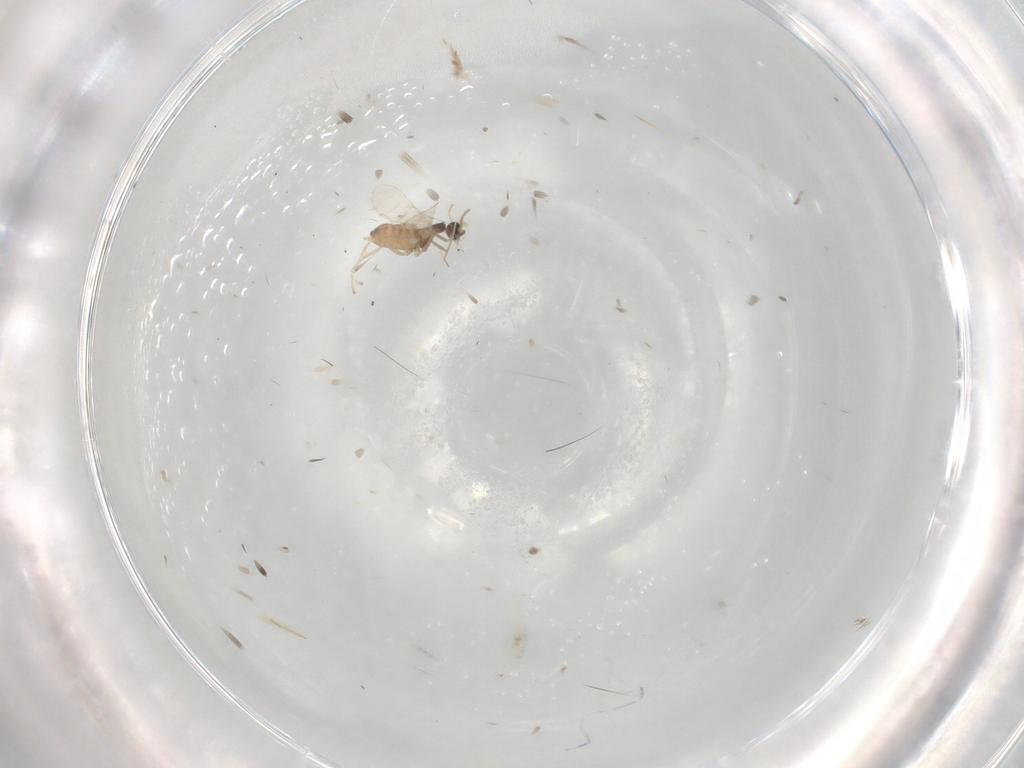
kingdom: Animalia
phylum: Arthropoda
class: Insecta
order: Diptera
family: Cecidomyiidae
